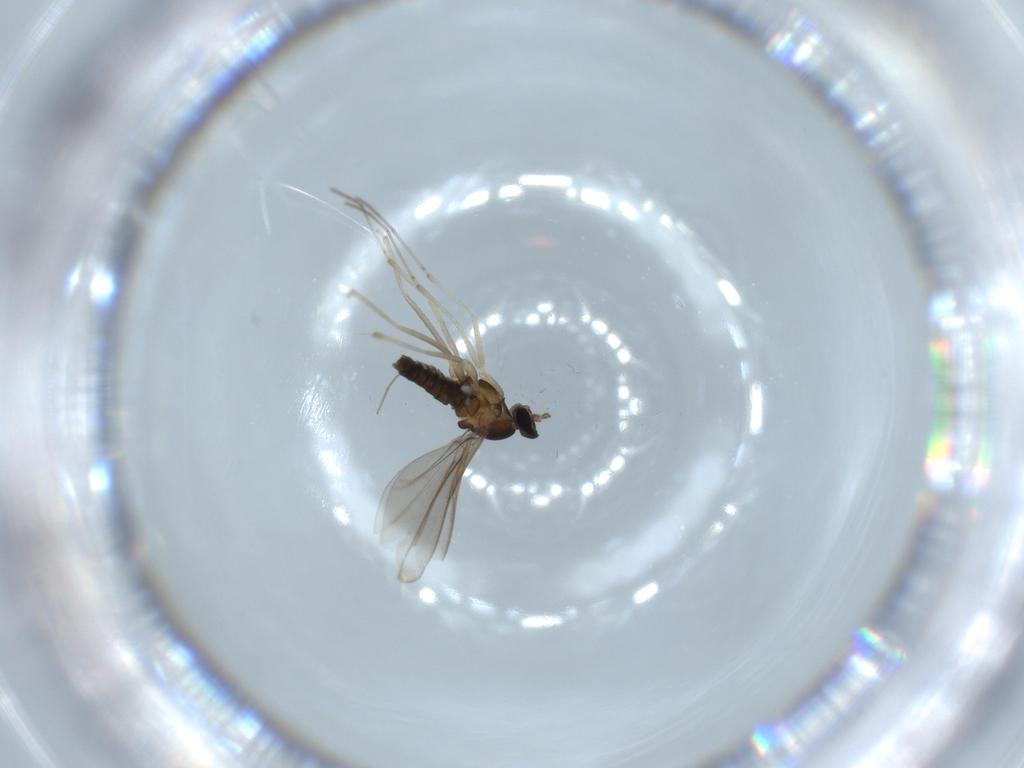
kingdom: Animalia
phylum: Arthropoda
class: Insecta
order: Diptera
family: Cecidomyiidae
